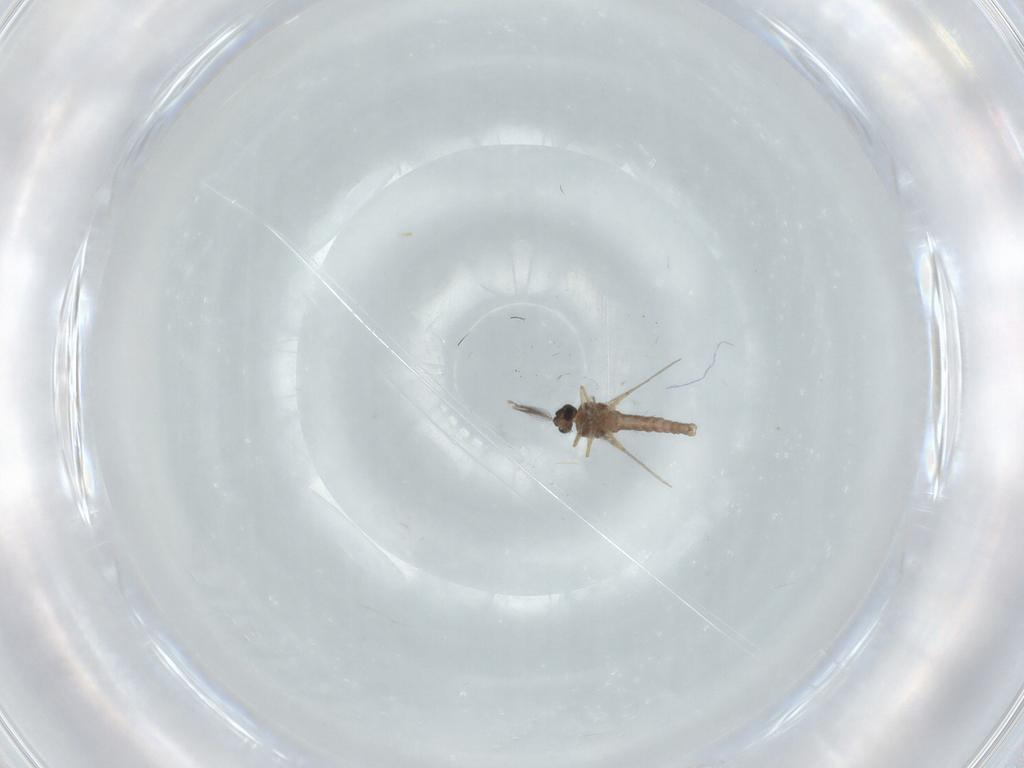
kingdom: Animalia
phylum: Arthropoda
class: Insecta
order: Diptera
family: Ceratopogonidae
